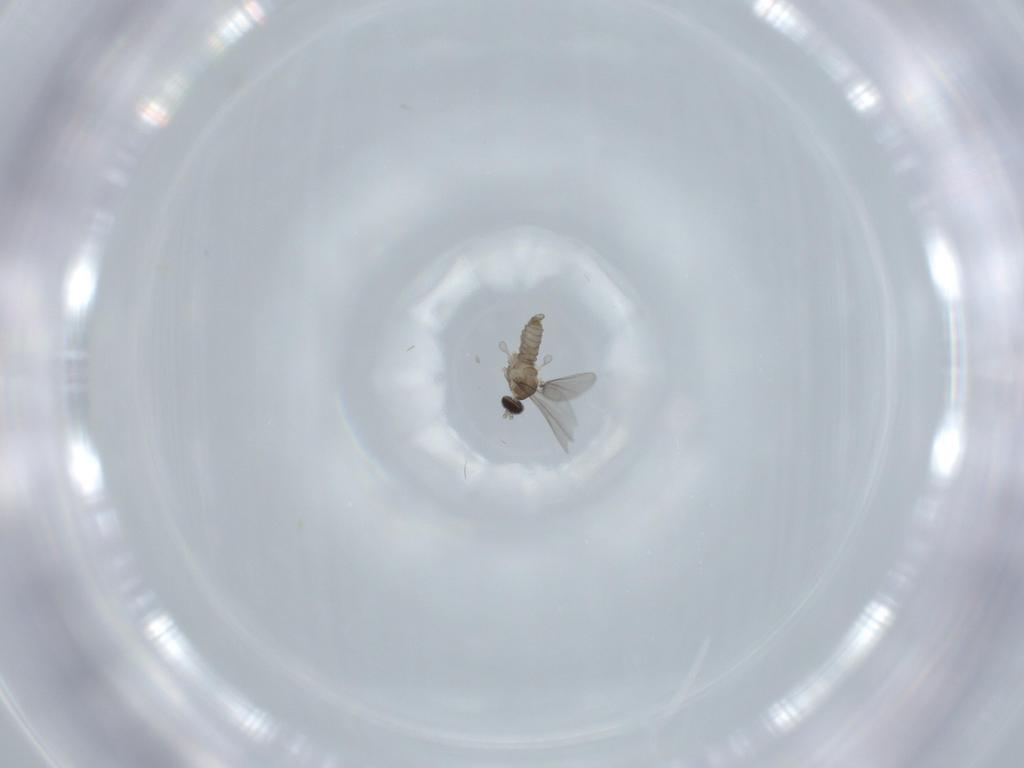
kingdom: Animalia
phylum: Arthropoda
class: Insecta
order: Diptera
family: Cecidomyiidae
